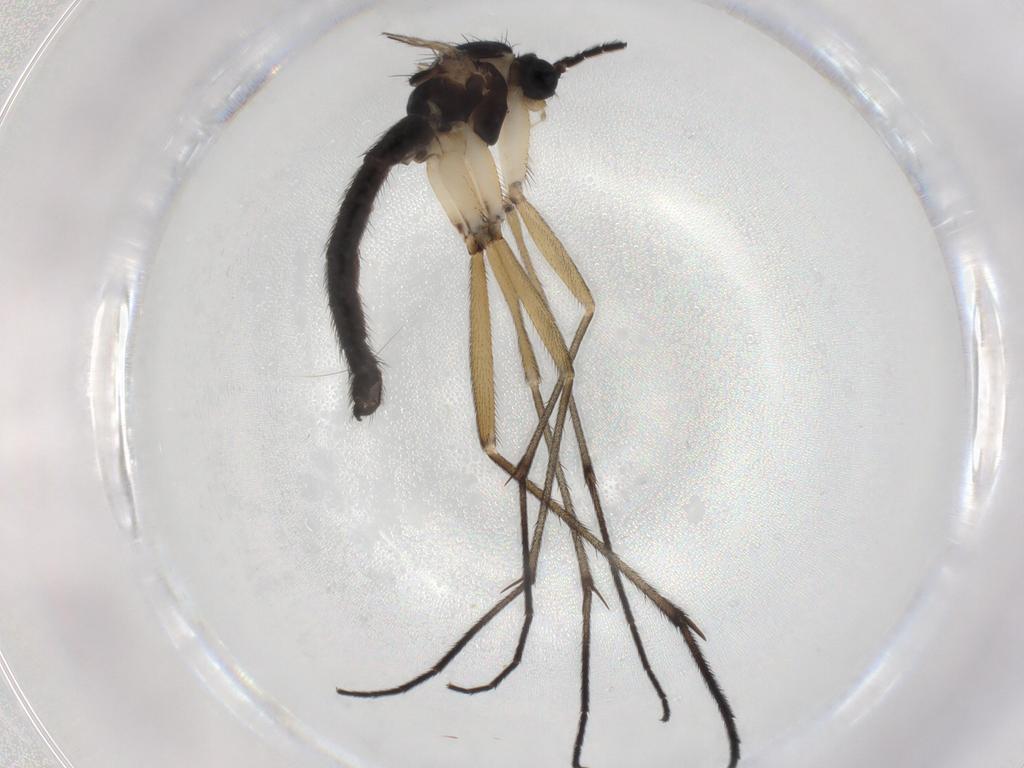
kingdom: Animalia
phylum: Arthropoda
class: Insecta
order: Diptera
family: Sciaridae
